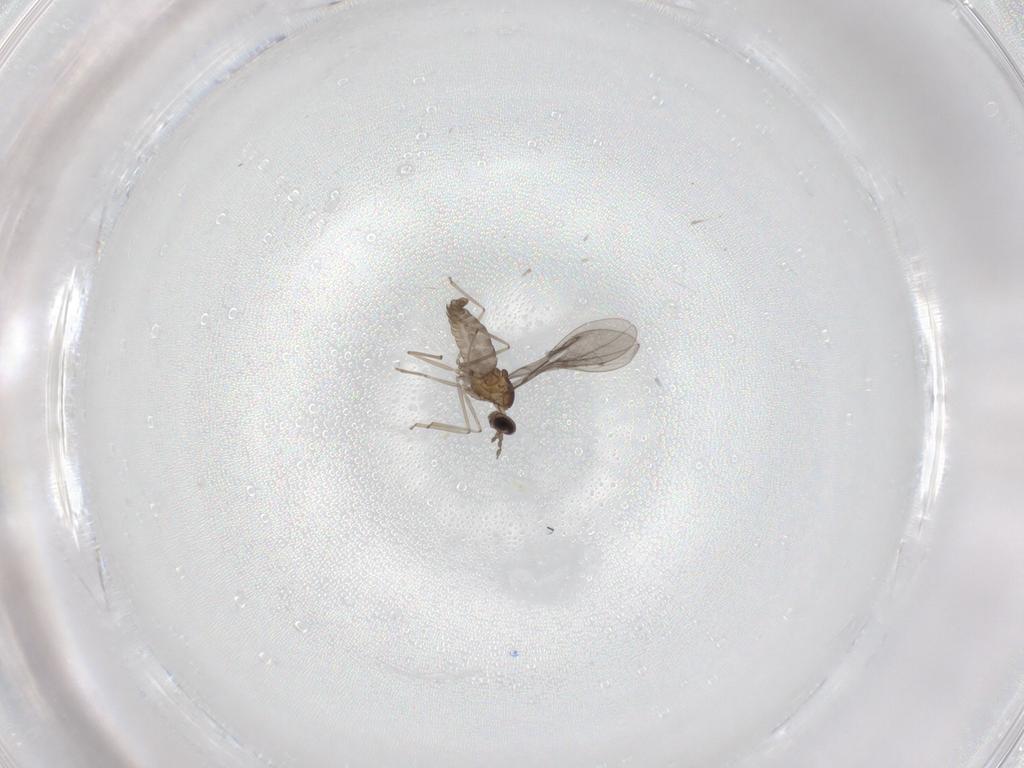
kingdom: Animalia
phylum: Arthropoda
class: Insecta
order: Diptera
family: Cecidomyiidae
